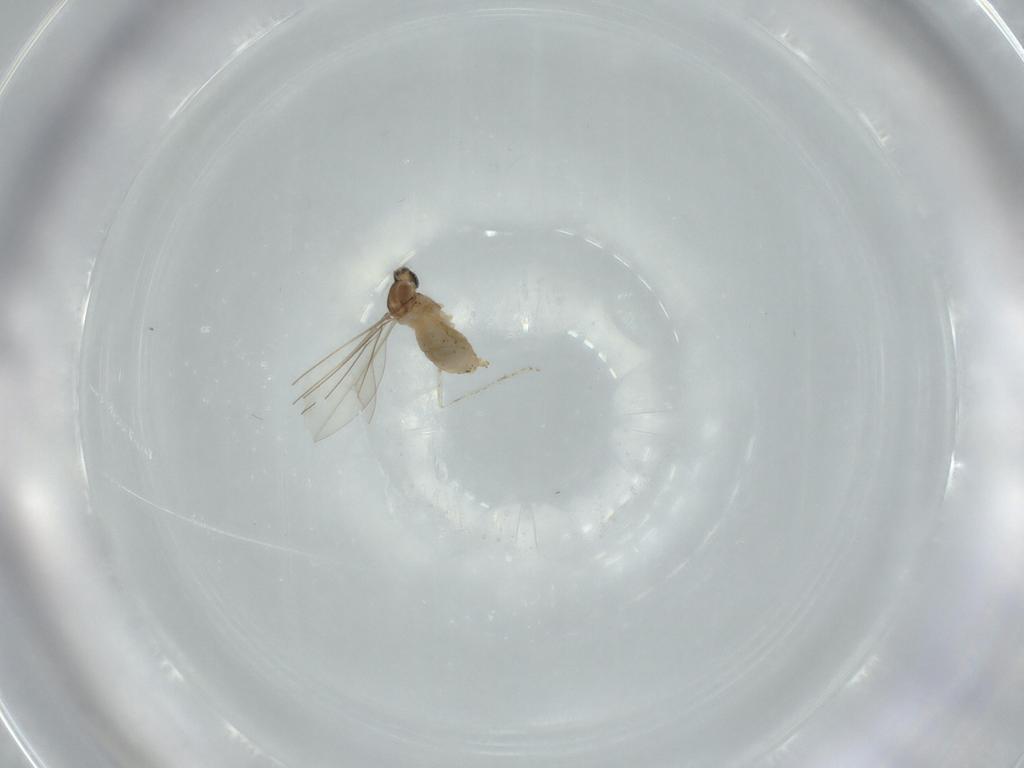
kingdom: Animalia
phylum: Arthropoda
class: Insecta
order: Diptera
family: Cecidomyiidae
